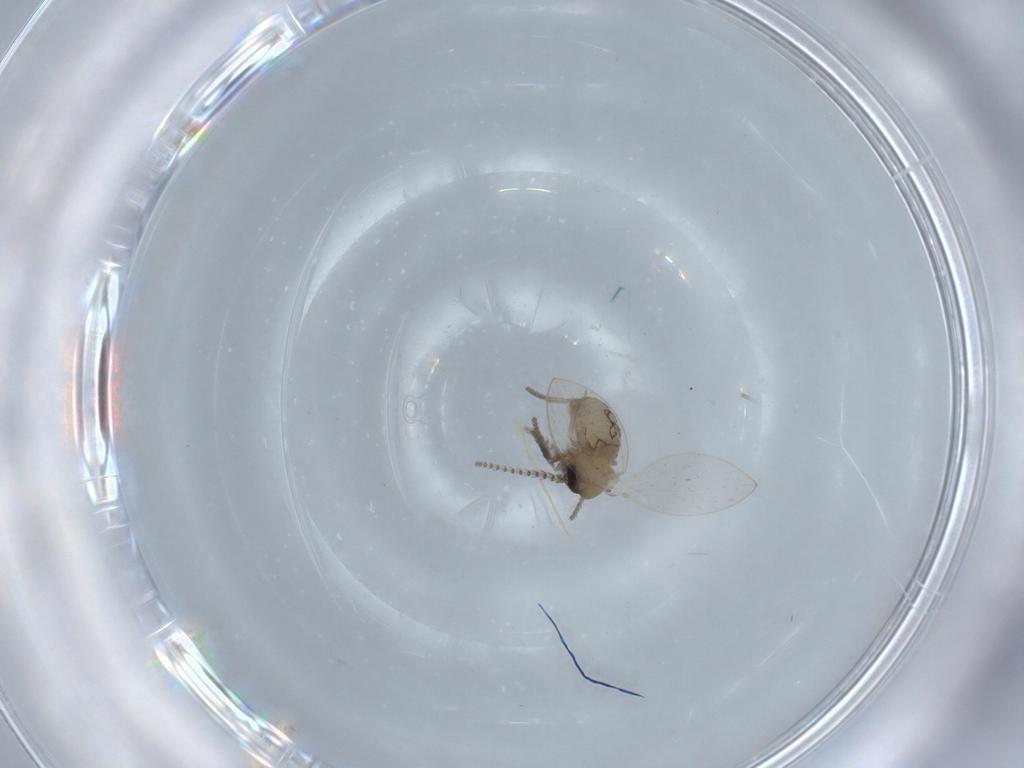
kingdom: Animalia
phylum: Arthropoda
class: Insecta
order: Diptera
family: Psychodidae
